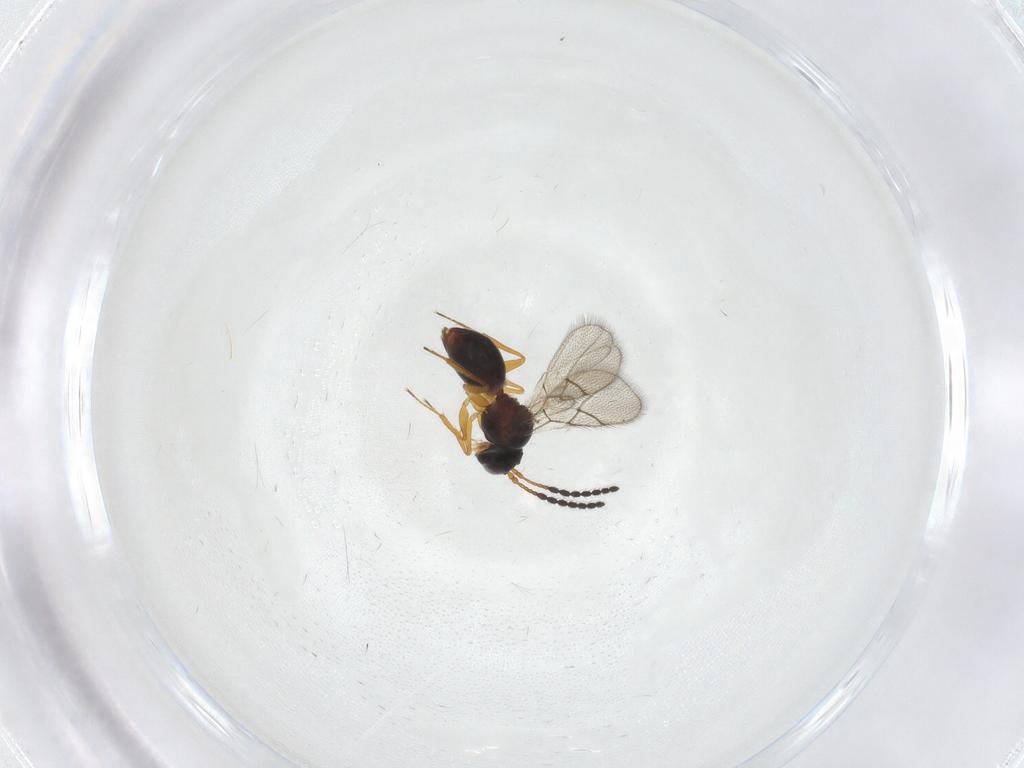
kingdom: Animalia
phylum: Arthropoda
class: Insecta
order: Hymenoptera
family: Figitidae
